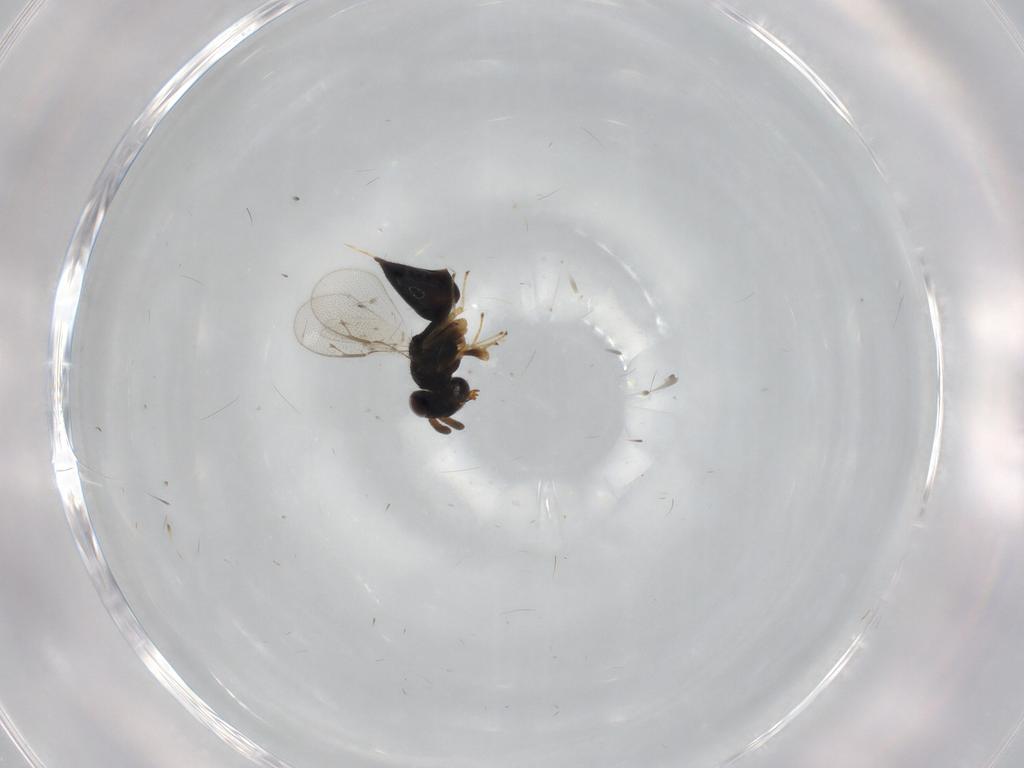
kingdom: Animalia
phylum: Arthropoda
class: Insecta
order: Hymenoptera
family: Pteromalidae
